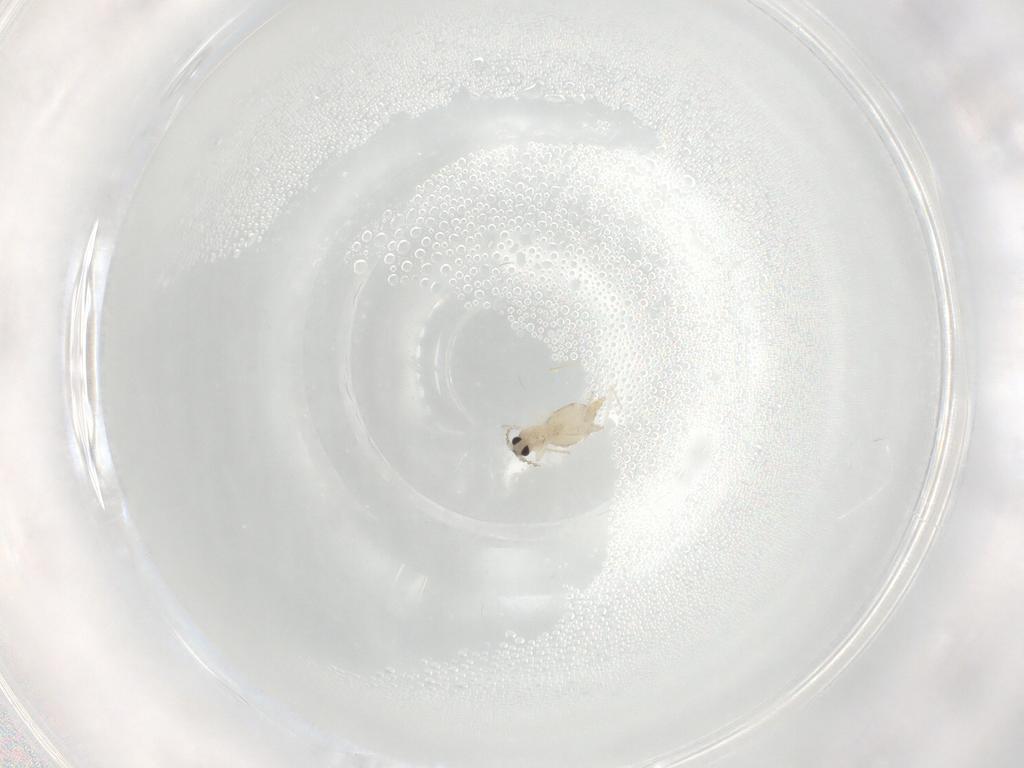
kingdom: Animalia
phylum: Arthropoda
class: Insecta
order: Diptera
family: Cecidomyiidae
